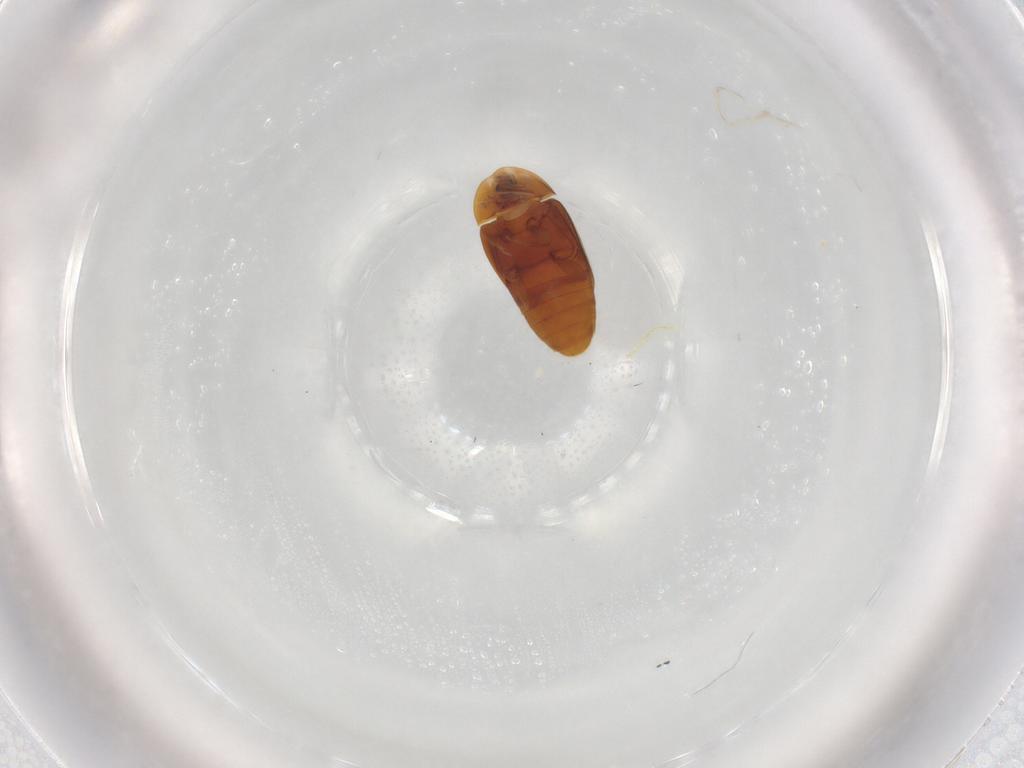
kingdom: Animalia
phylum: Arthropoda
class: Insecta
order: Coleoptera
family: Corylophidae
